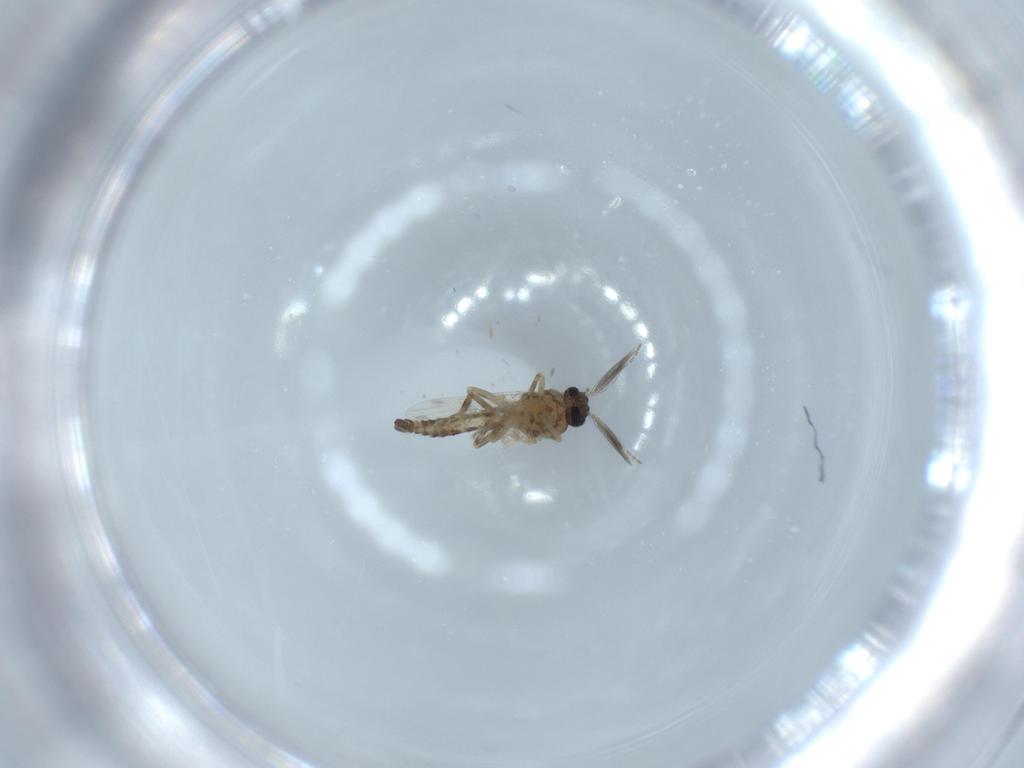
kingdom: Animalia
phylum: Arthropoda
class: Insecta
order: Diptera
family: Ceratopogonidae
